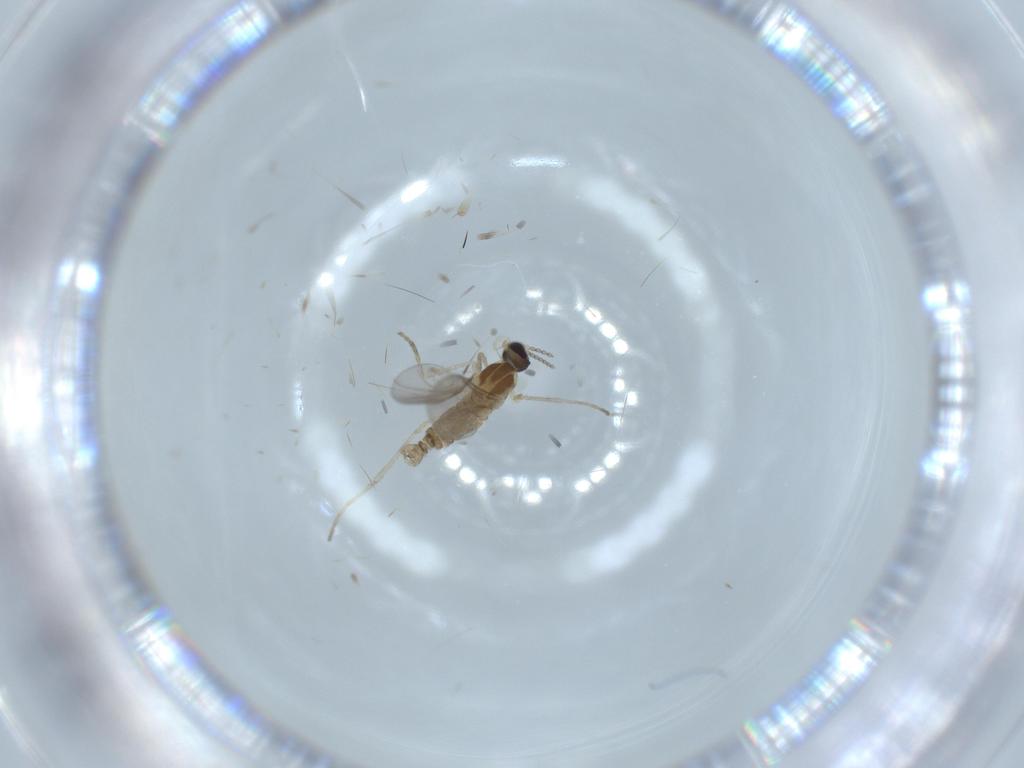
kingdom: Animalia
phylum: Arthropoda
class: Insecta
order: Diptera
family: Cecidomyiidae
